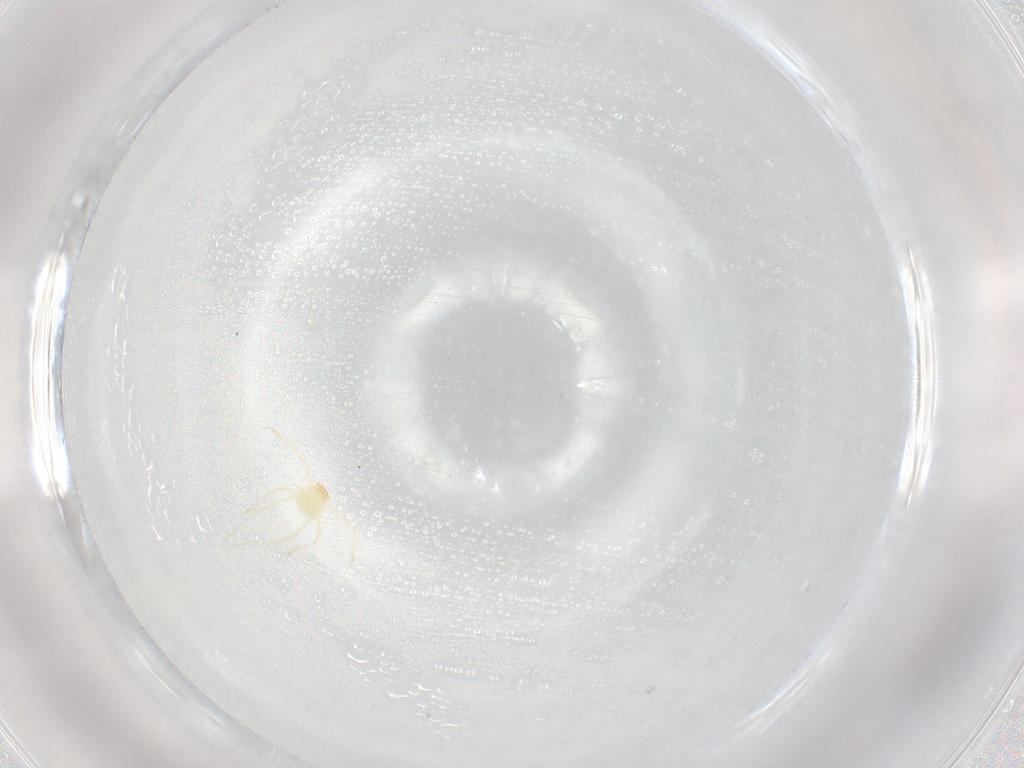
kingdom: Animalia
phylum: Arthropoda
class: Arachnida
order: Trombidiformes
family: Erythraeidae
